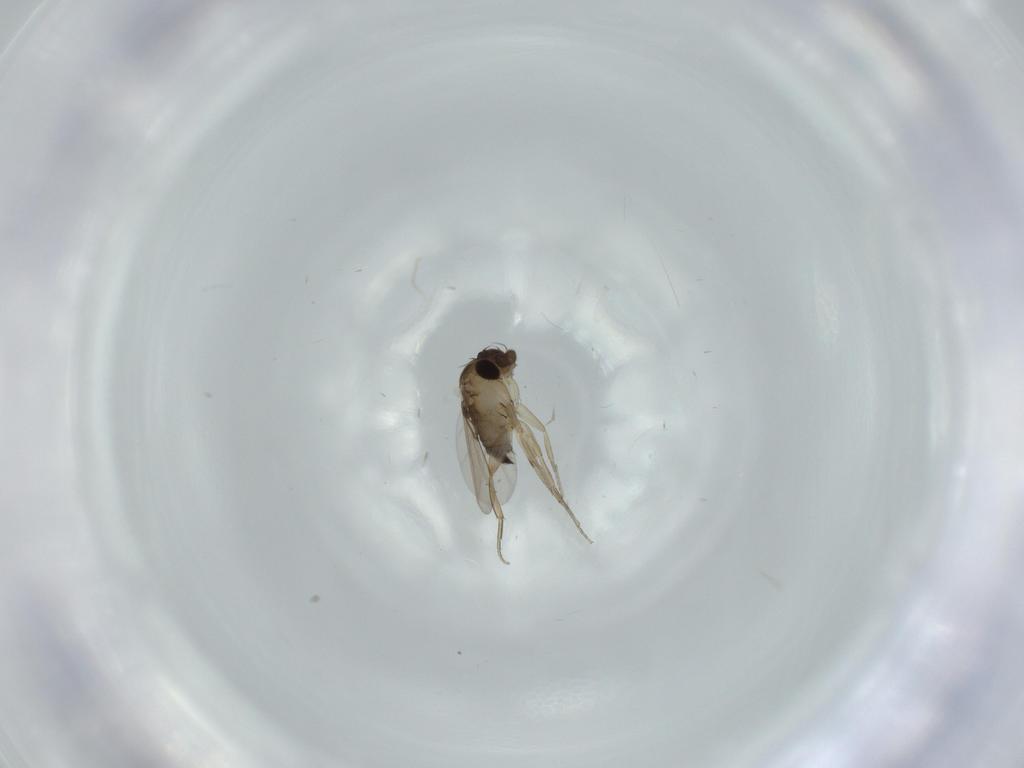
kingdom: Animalia
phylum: Arthropoda
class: Insecta
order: Diptera
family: Phoridae
